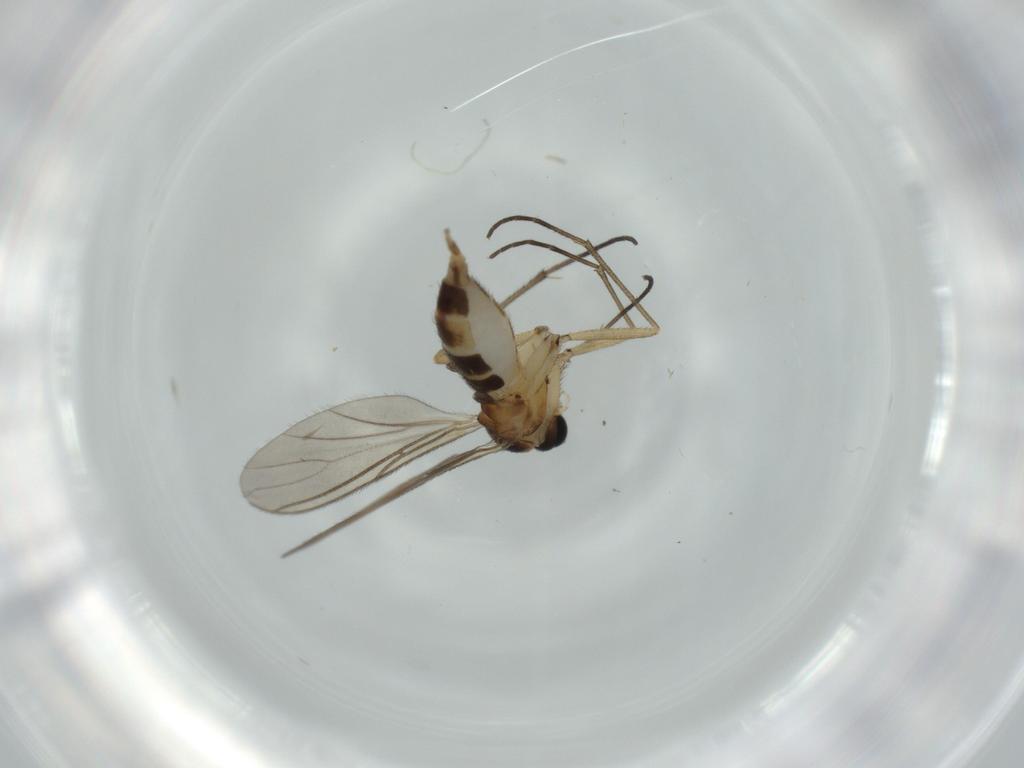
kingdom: Animalia
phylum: Arthropoda
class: Insecta
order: Diptera
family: Sciaridae
